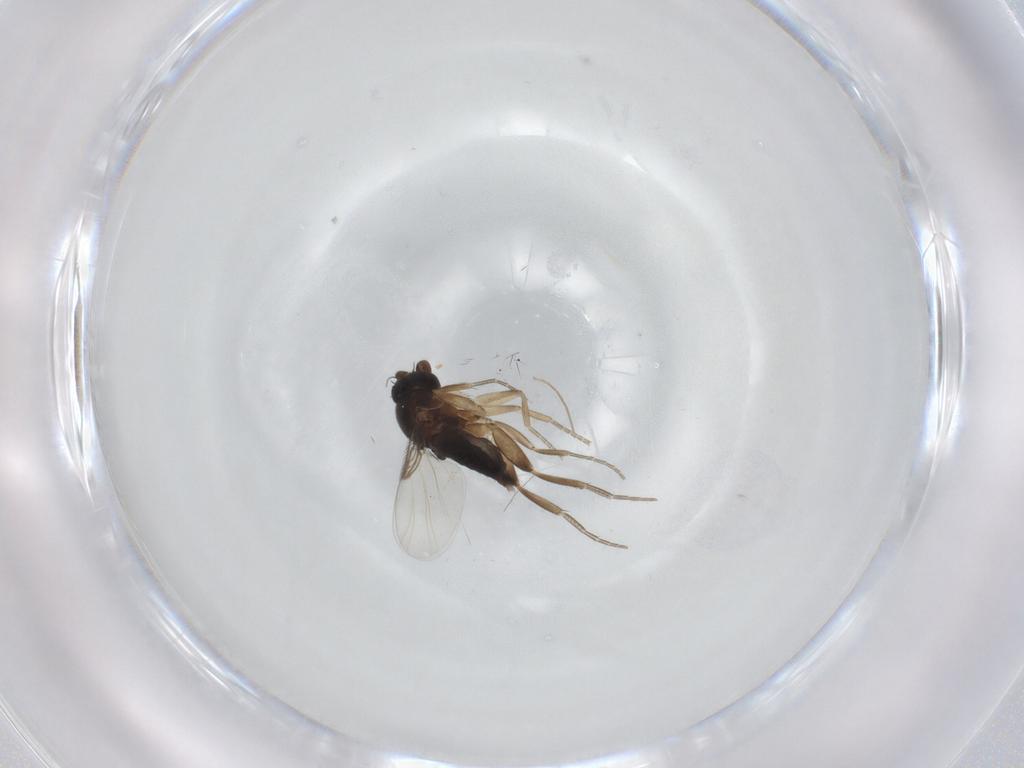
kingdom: Animalia
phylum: Arthropoda
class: Insecta
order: Diptera
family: Phoridae
